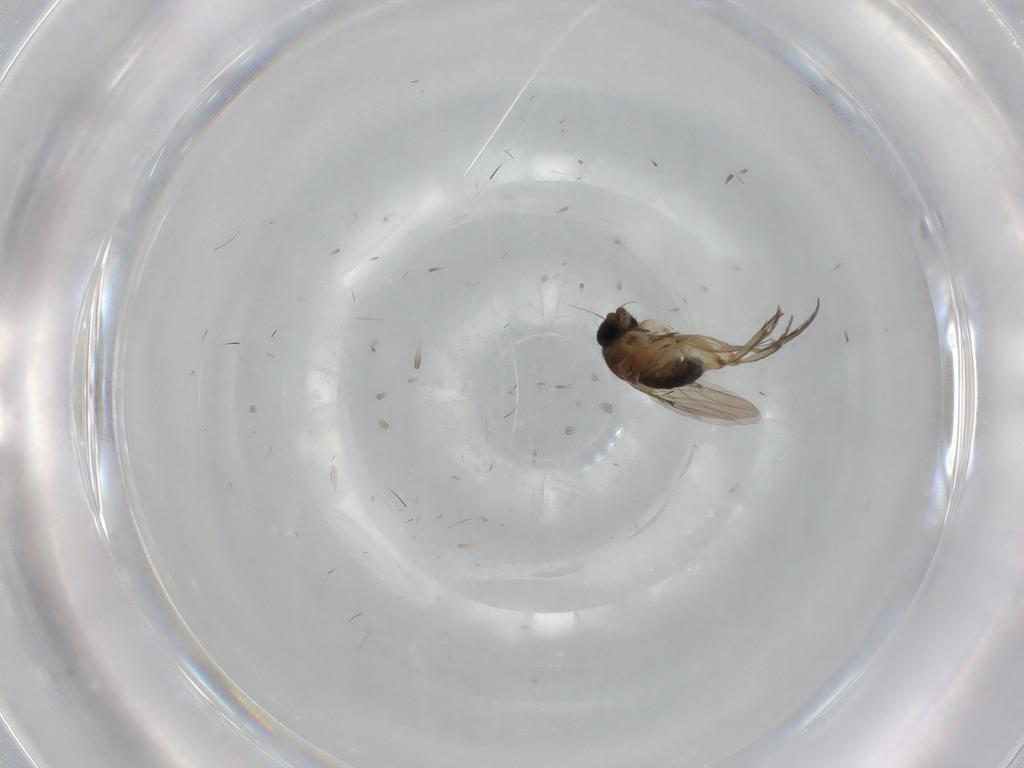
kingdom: Animalia
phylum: Arthropoda
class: Insecta
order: Diptera
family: Phoridae
